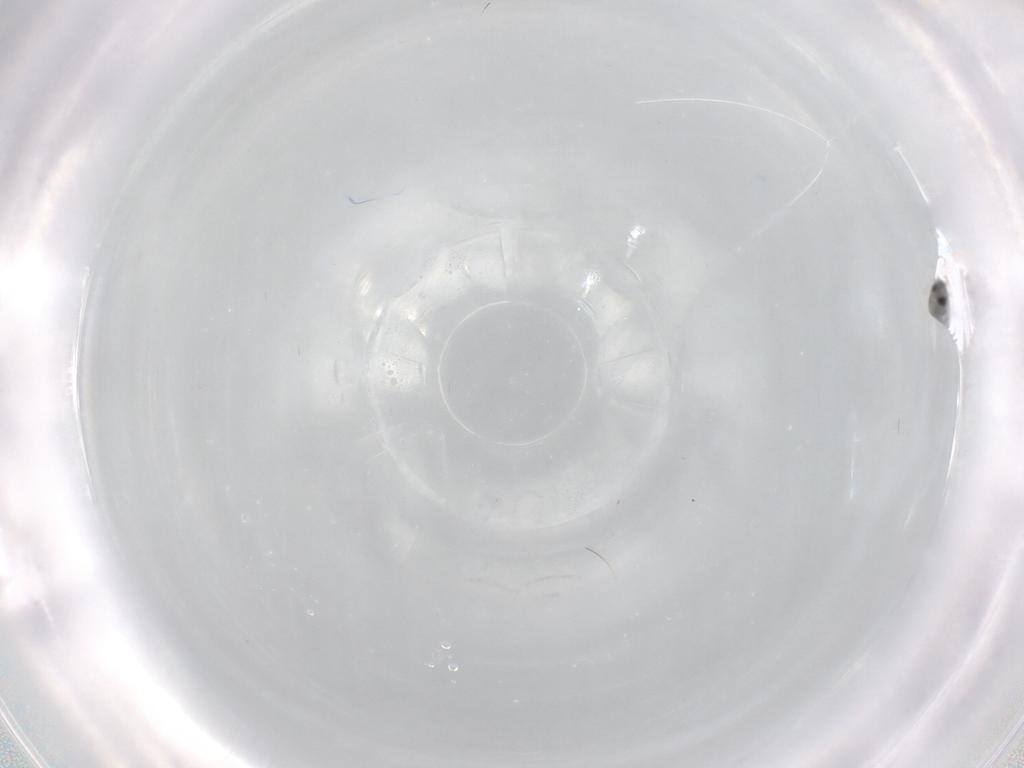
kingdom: Animalia
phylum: Arthropoda
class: Insecta
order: Diptera
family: Cecidomyiidae
